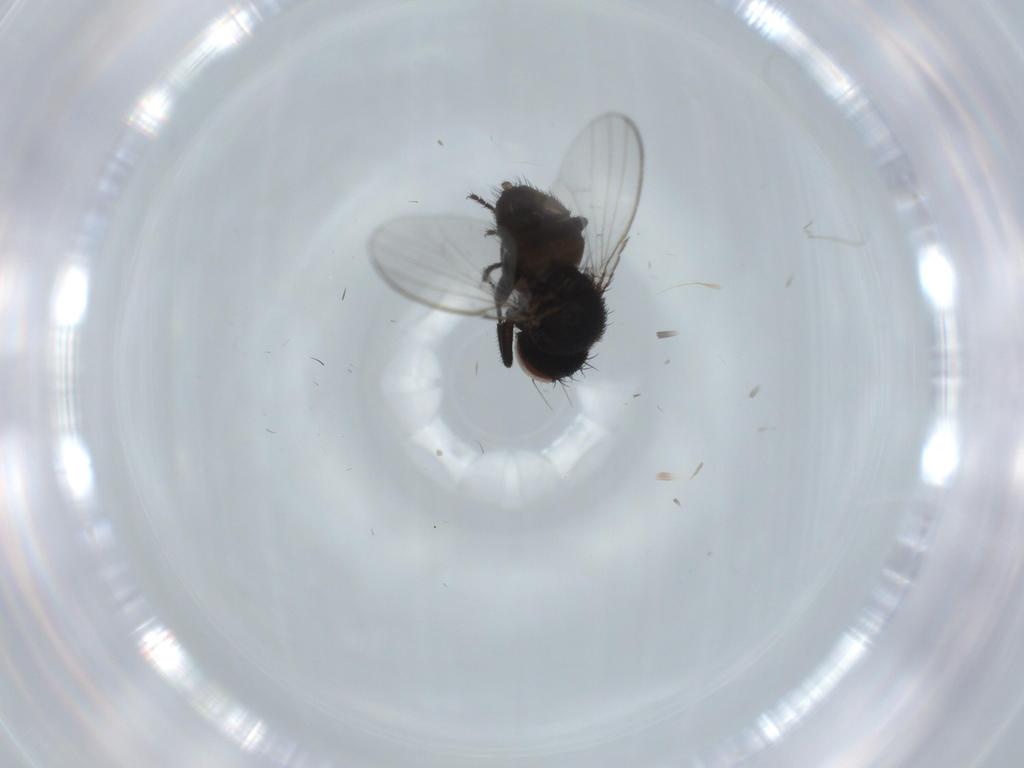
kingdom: Animalia
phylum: Arthropoda
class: Insecta
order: Diptera
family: Milichiidae
